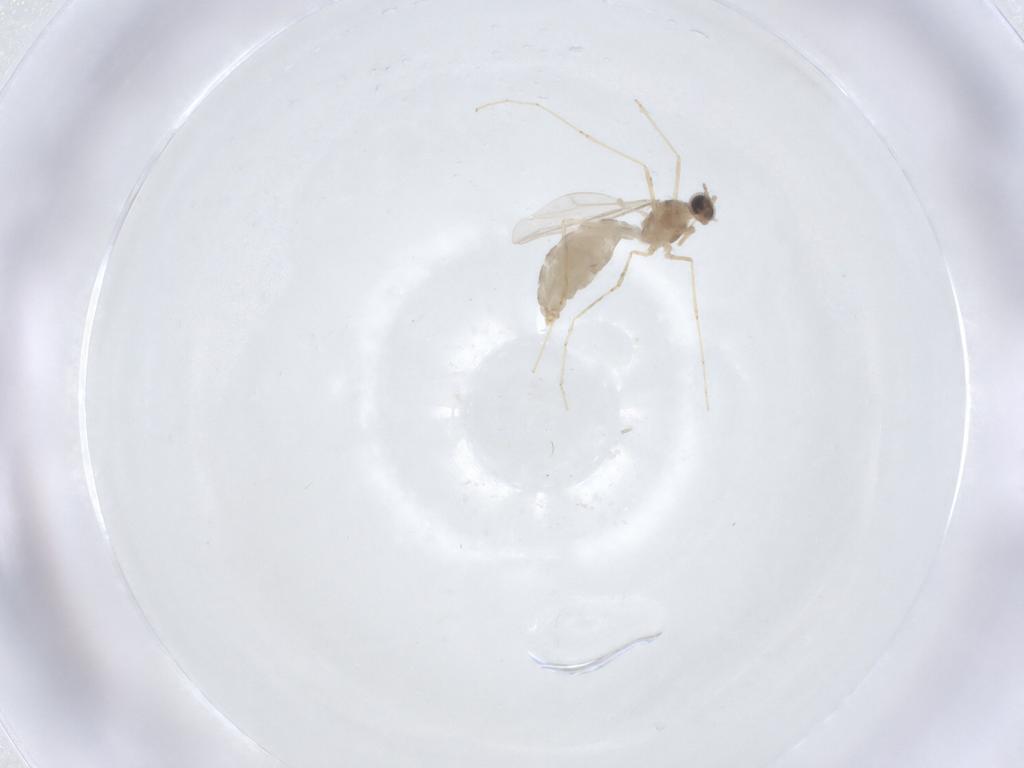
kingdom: Animalia
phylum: Arthropoda
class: Insecta
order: Diptera
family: Cecidomyiidae
